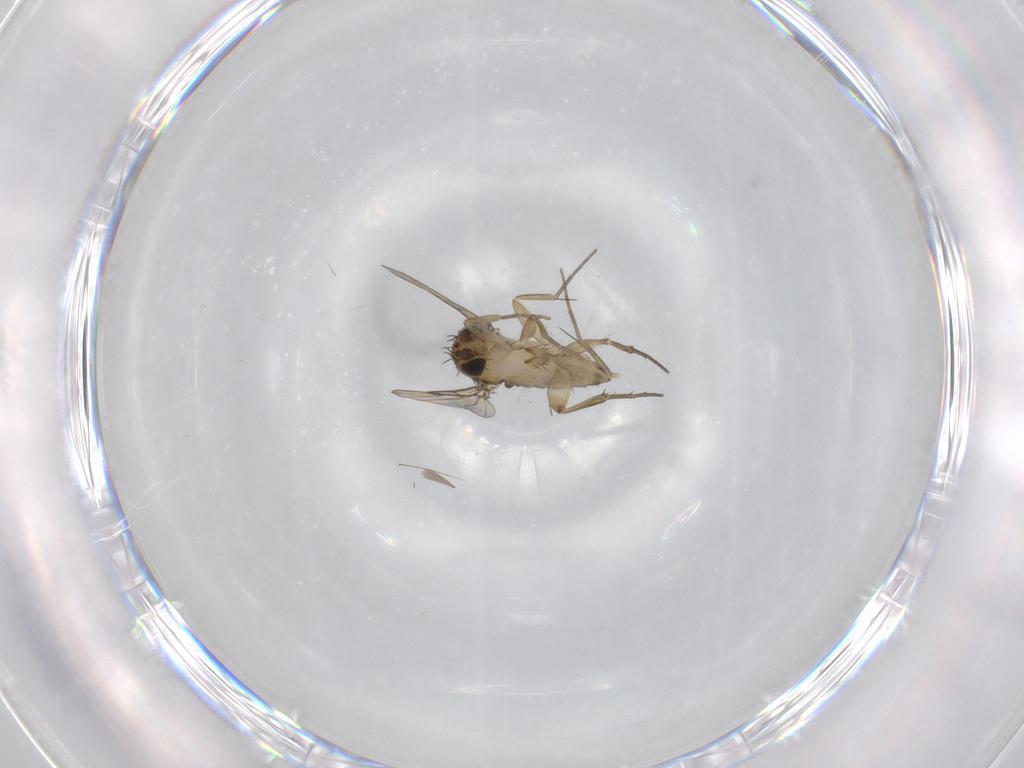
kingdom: Animalia
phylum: Arthropoda
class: Insecta
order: Diptera
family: Phoridae
